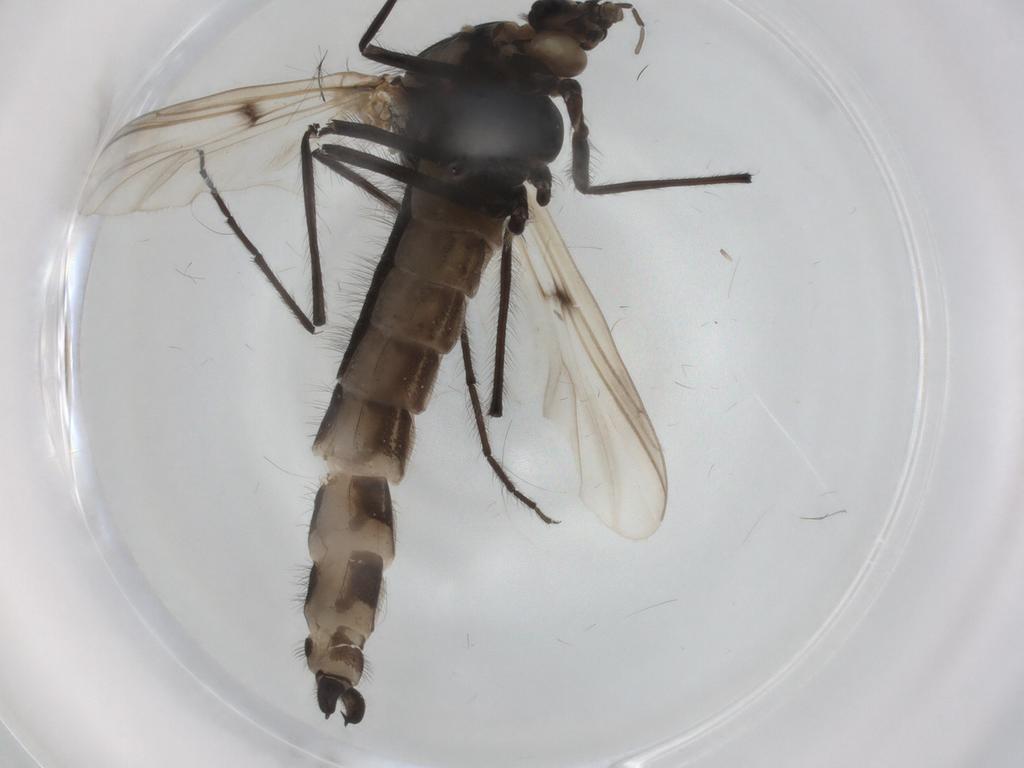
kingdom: Animalia
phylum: Arthropoda
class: Insecta
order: Diptera
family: Chironomidae
